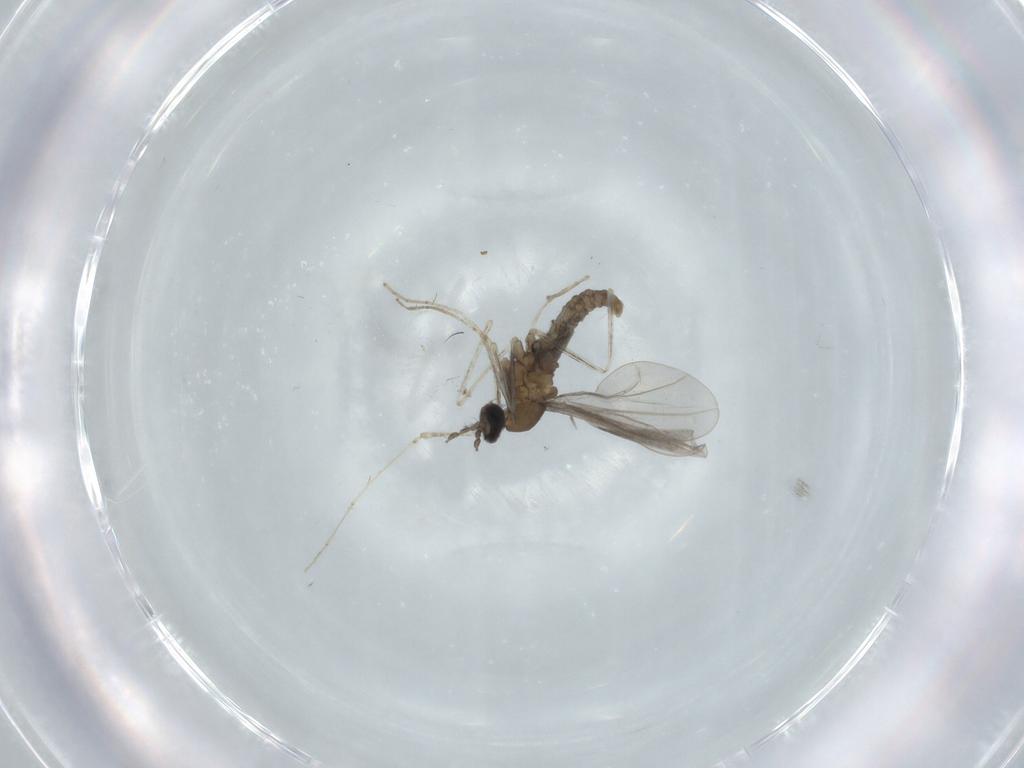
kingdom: Animalia
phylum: Arthropoda
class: Insecta
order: Diptera
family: Cecidomyiidae
